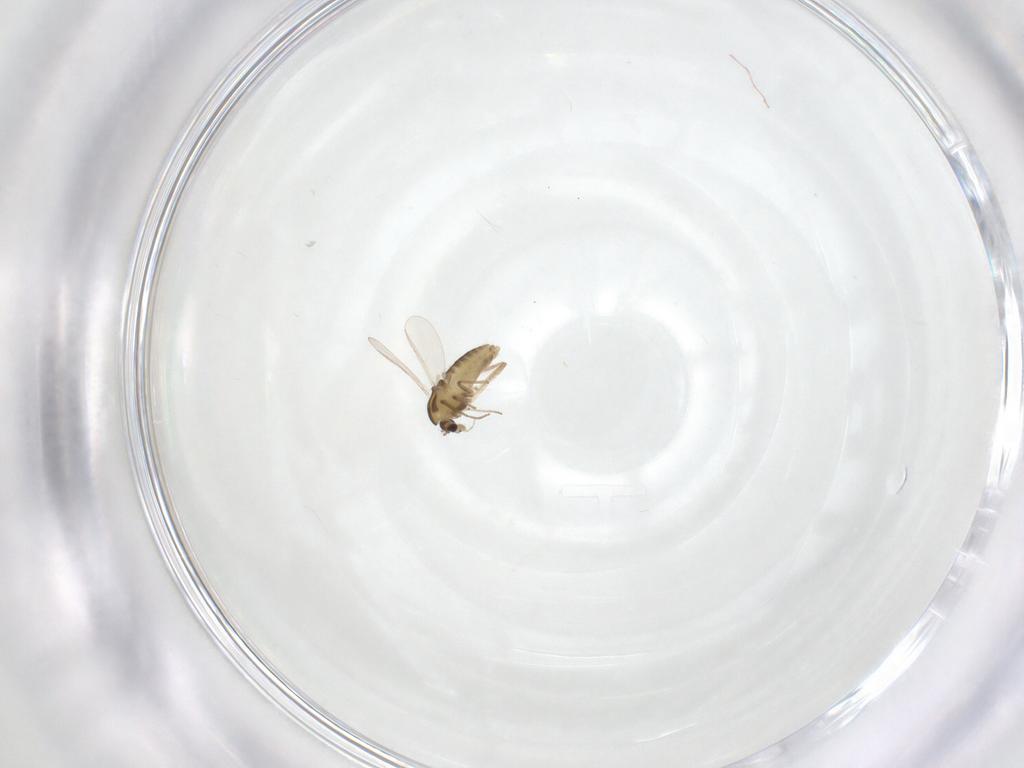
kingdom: Animalia
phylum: Arthropoda
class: Insecta
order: Diptera
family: Chironomidae
